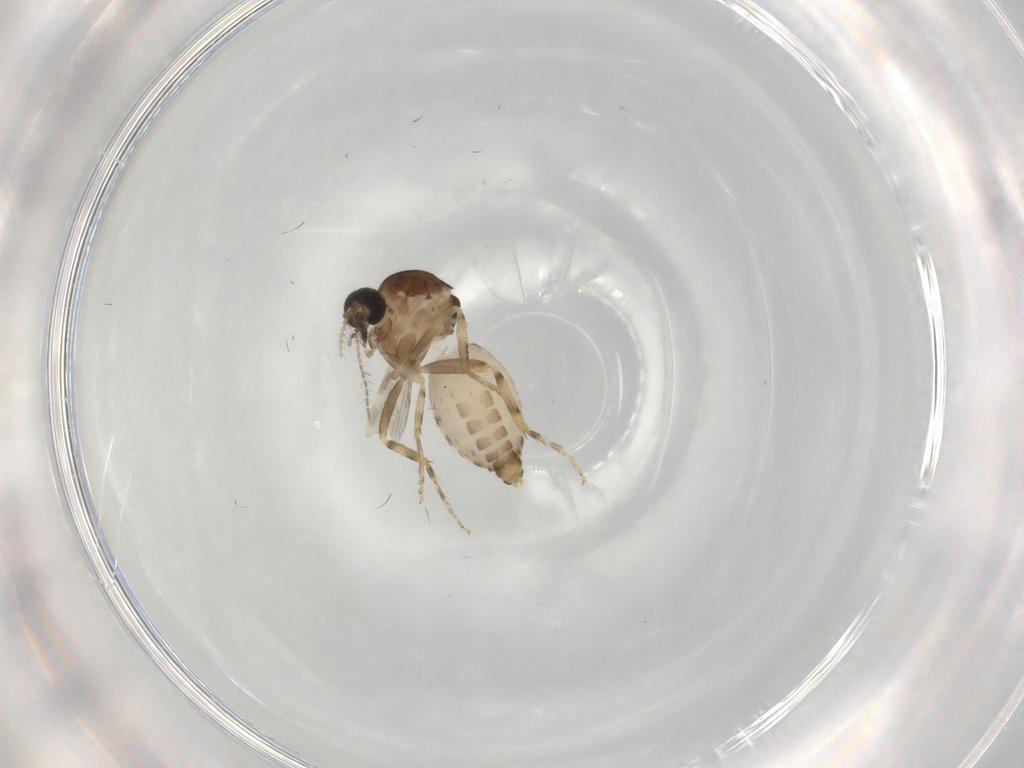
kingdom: Animalia
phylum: Arthropoda
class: Insecta
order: Diptera
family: Ceratopogonidae
